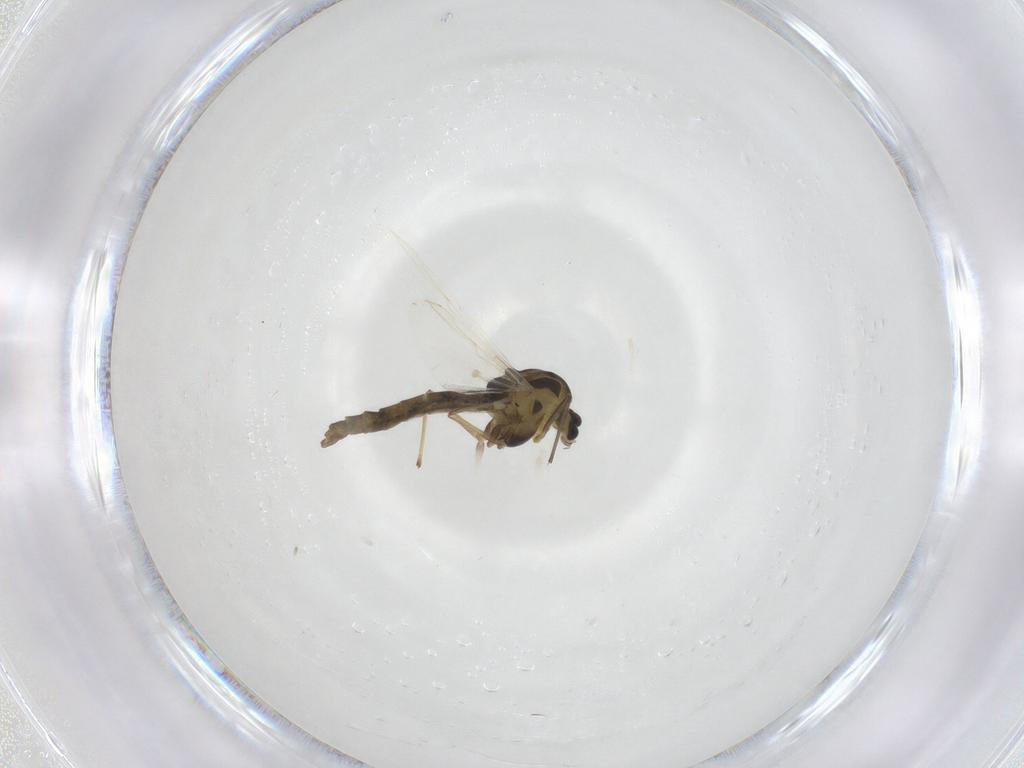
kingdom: Animalia
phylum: Arthropoda
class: Insecta
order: Diptera
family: Chironomidae
